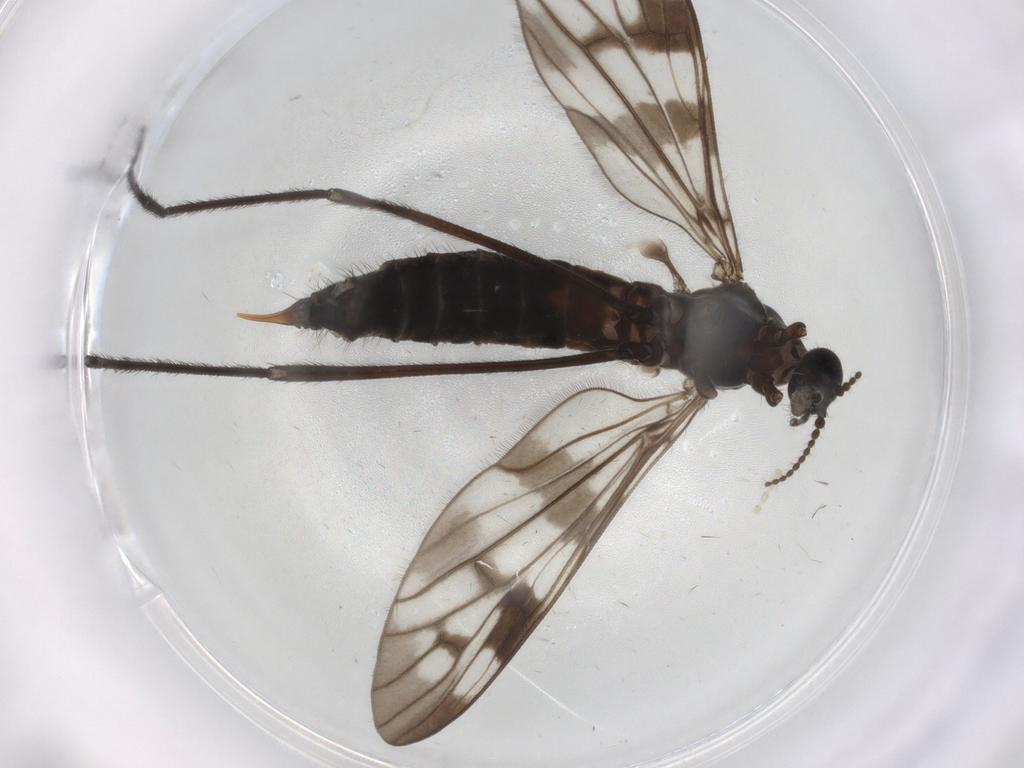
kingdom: Animalia
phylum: Arthropoda
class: Insecta
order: Diptera
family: Limoniidae
